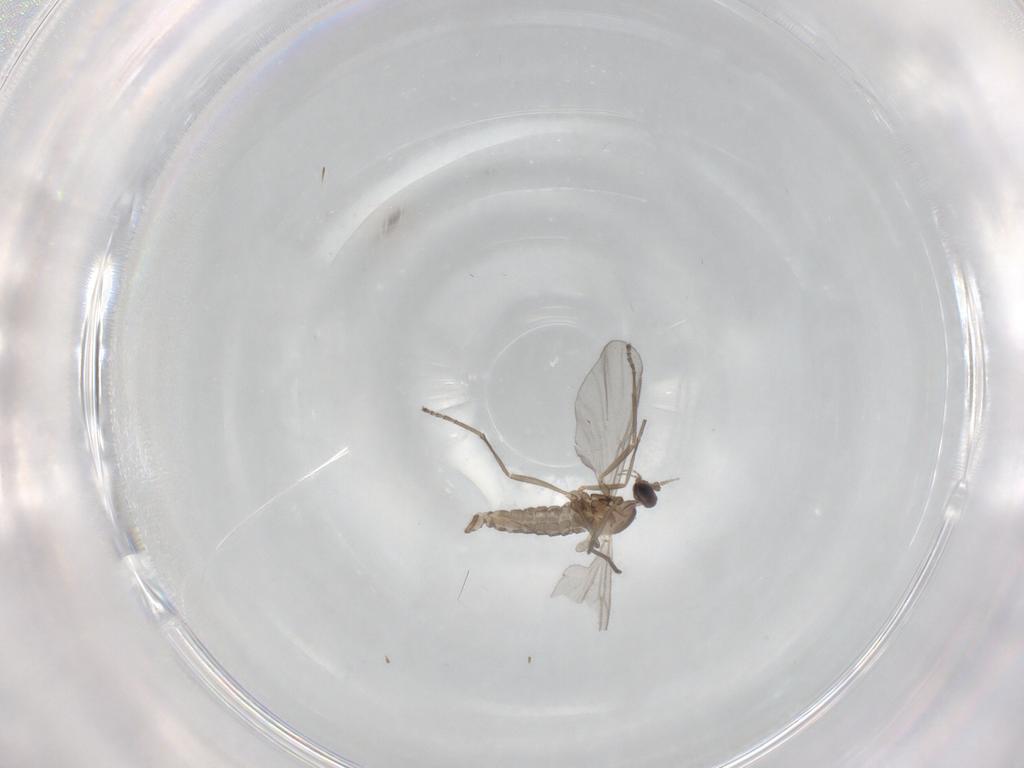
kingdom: Animalia
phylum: Arthropoda
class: Insecta
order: Diptera
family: Cecidomyiidae
